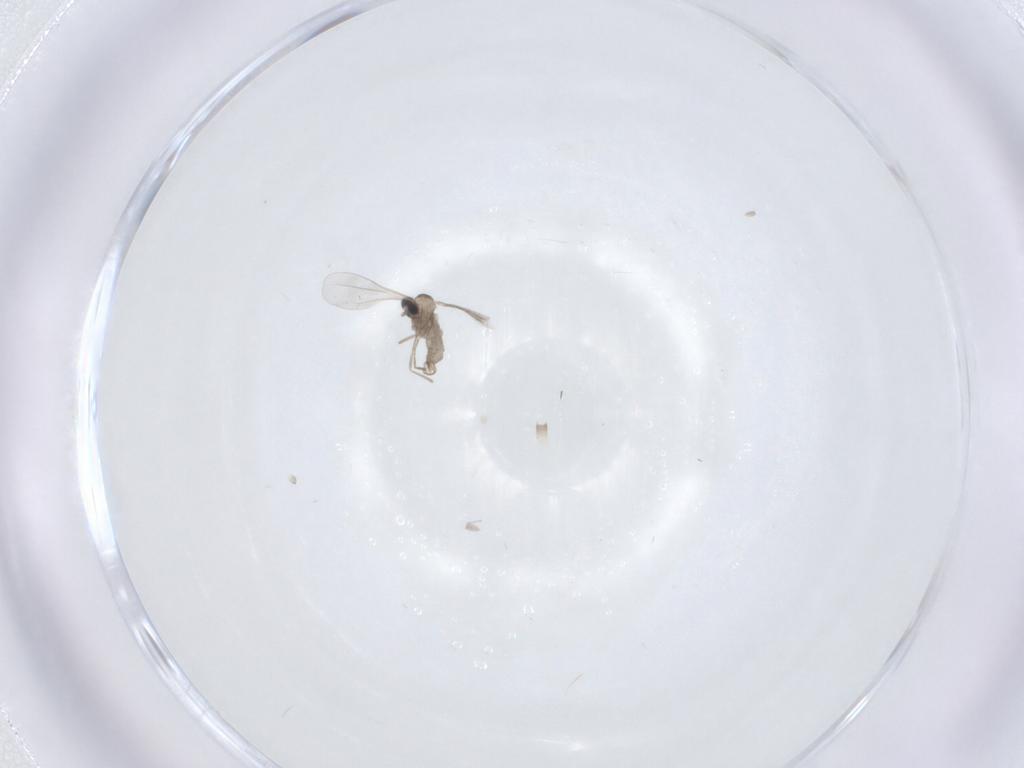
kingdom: Animalia
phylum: Arthropoda
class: Insecta
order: Diptera
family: Cecidomyiidae
